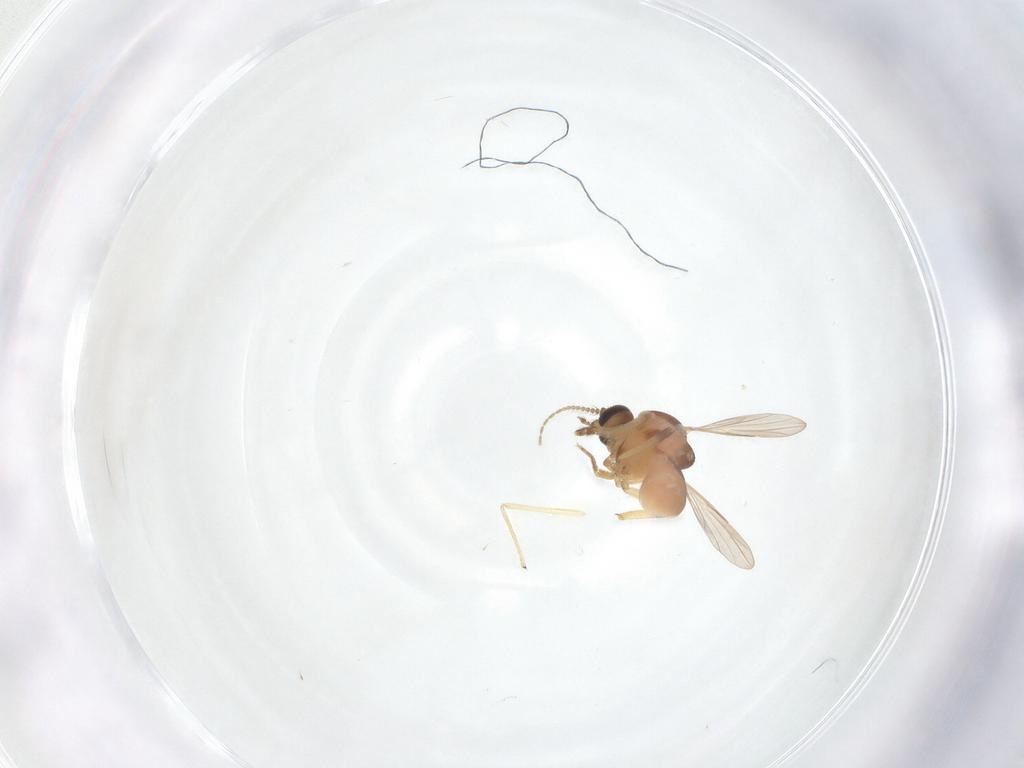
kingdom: Animalia
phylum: Arthropoda
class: Insecta
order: Diptera
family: Ceratopogonidae
